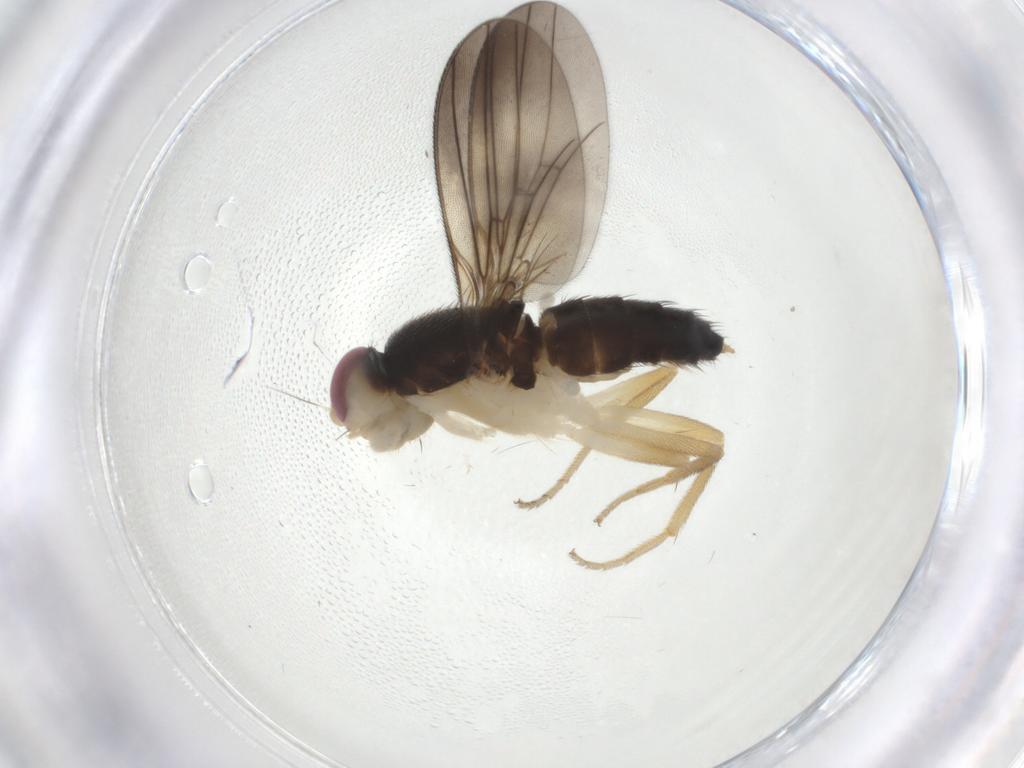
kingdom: Animalia
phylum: Arthropoda
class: Insecta
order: Diptera
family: Clusiidae
